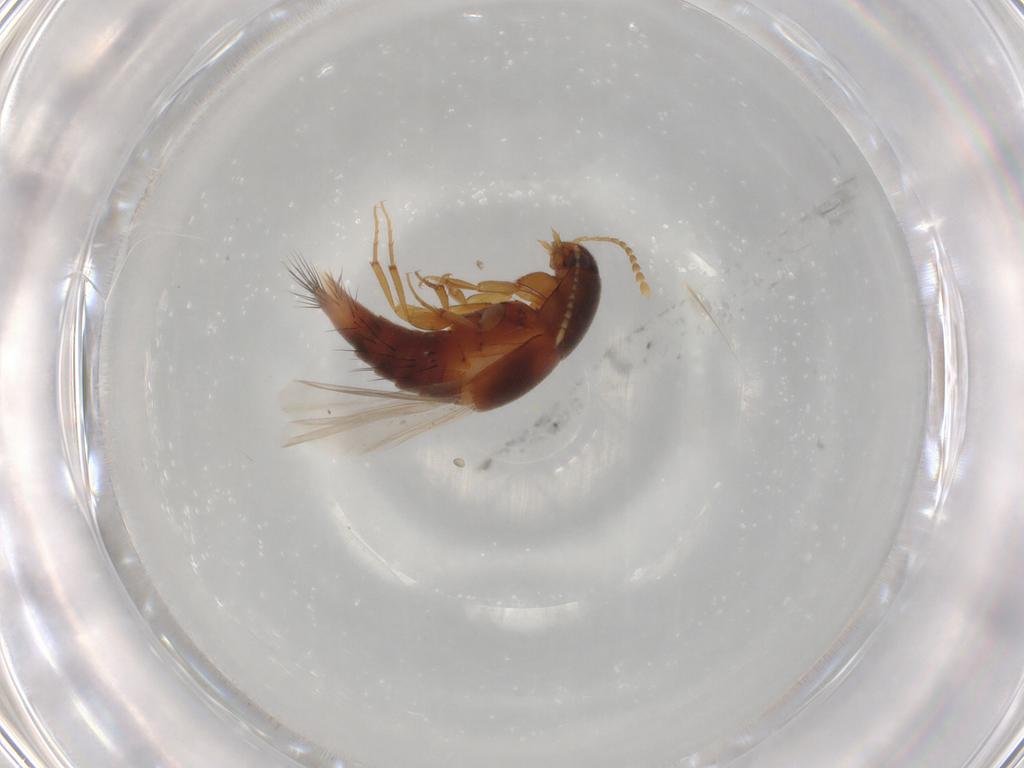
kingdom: Animalia
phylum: Arthropoda
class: Insecta
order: Coleoptera
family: Staphylinidae
